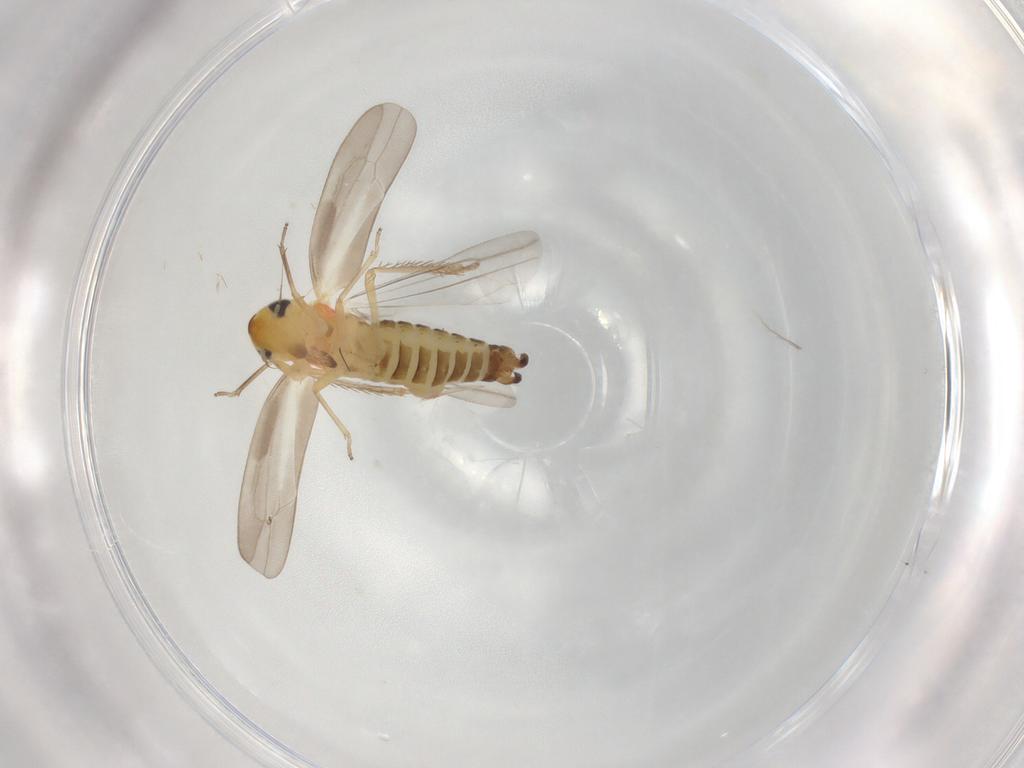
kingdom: Animalia
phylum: Arthropoda
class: Insecta
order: Hemiptera
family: Cicadellidae
